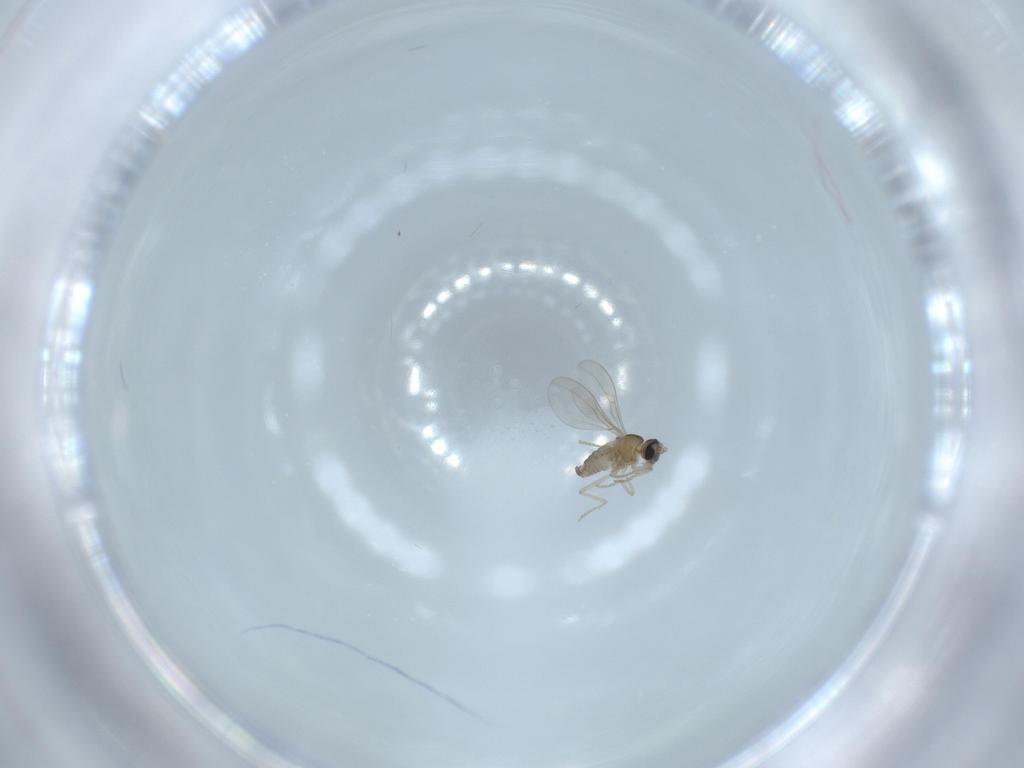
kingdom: Animalia
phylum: Arthropoda
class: Insecta
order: Diptera
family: Cecidomyiidae
